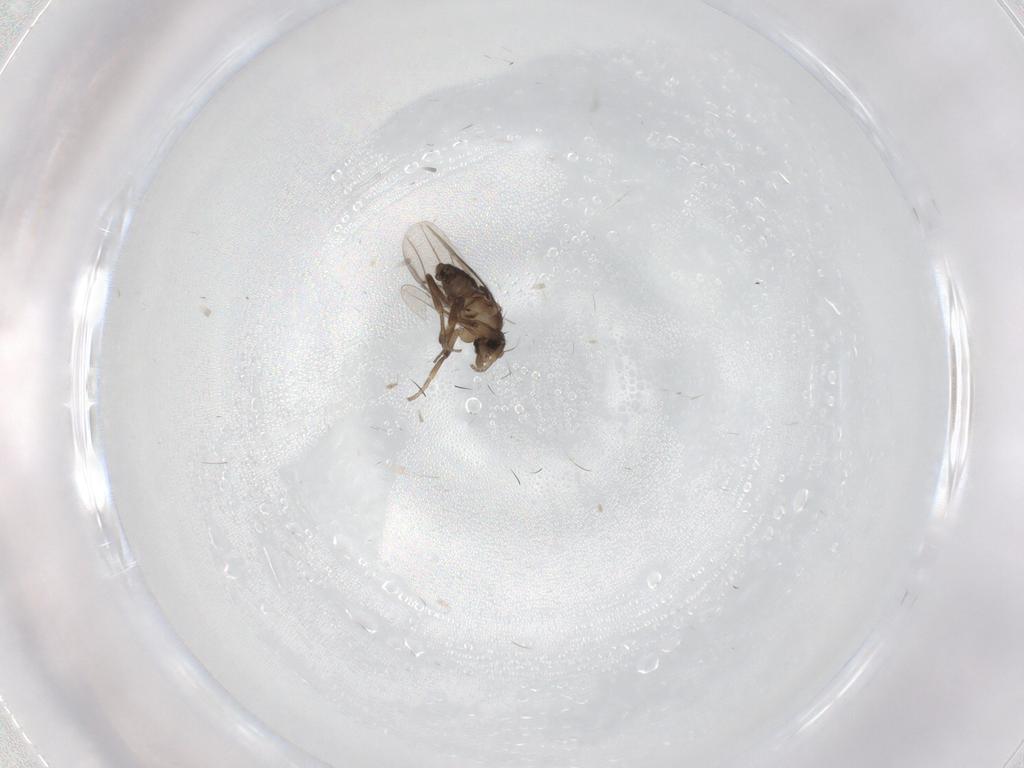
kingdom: Animalia
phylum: Arthropoda
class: Insecta
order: Diptera
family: Phoridae
